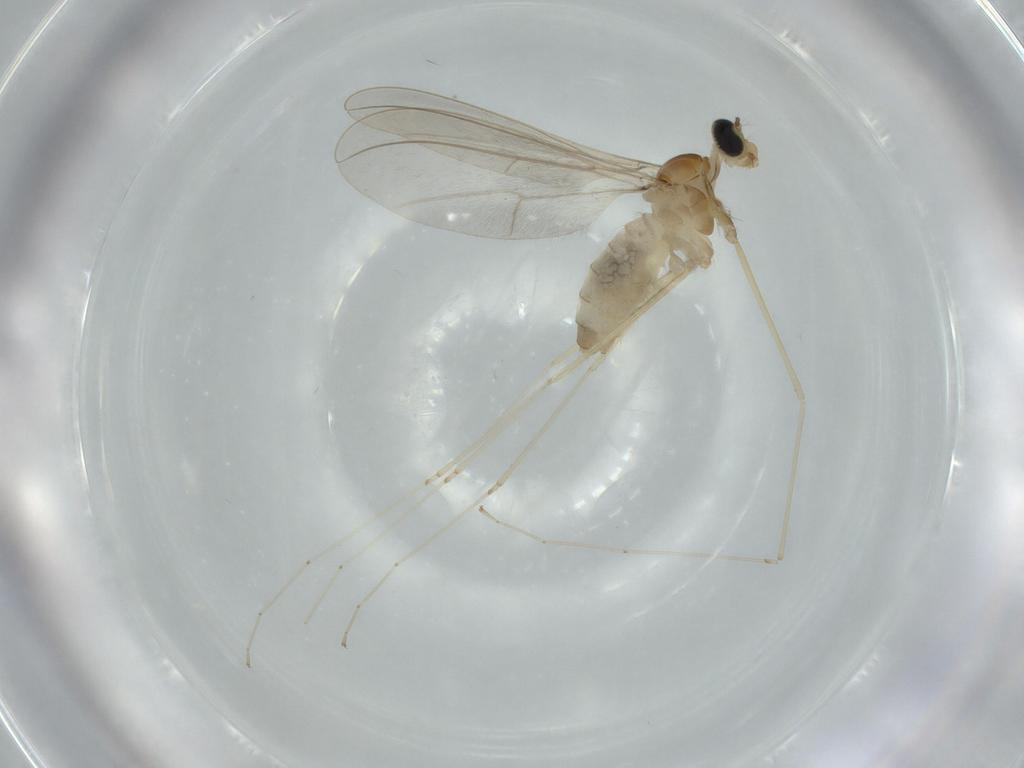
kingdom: Animalia
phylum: Arthropoda
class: Insecta
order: Diptera
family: Cecidomyiidae
